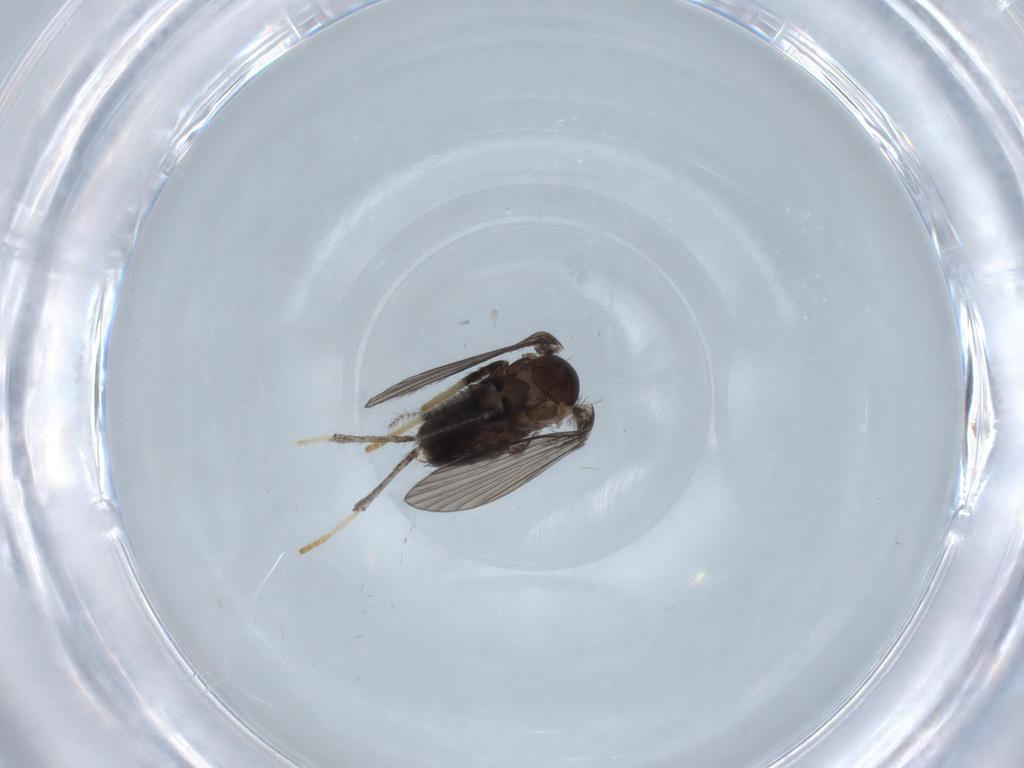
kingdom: Animalia
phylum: Arthropoda
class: Insecta
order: Diptera
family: Psychodidae
